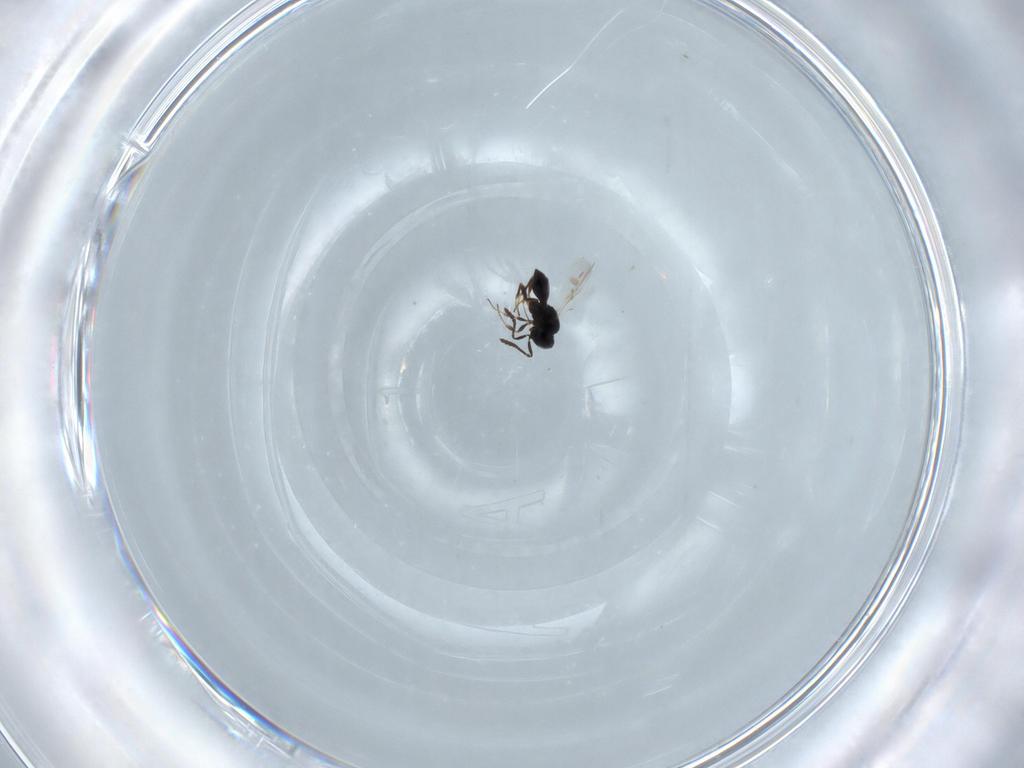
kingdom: Animalia
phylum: Arthropoda
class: Insecta
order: Hymenoptera
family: Scelionidae
